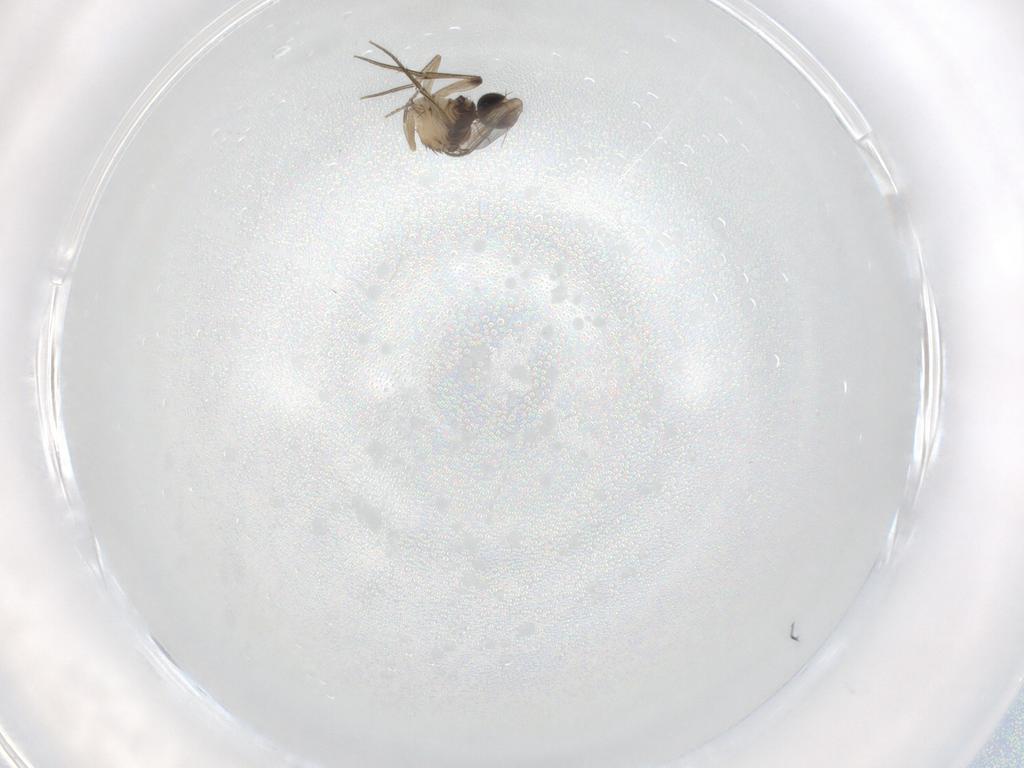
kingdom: Animalia
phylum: Arthropoda
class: Insecta
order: Diptera
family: Phoridae
